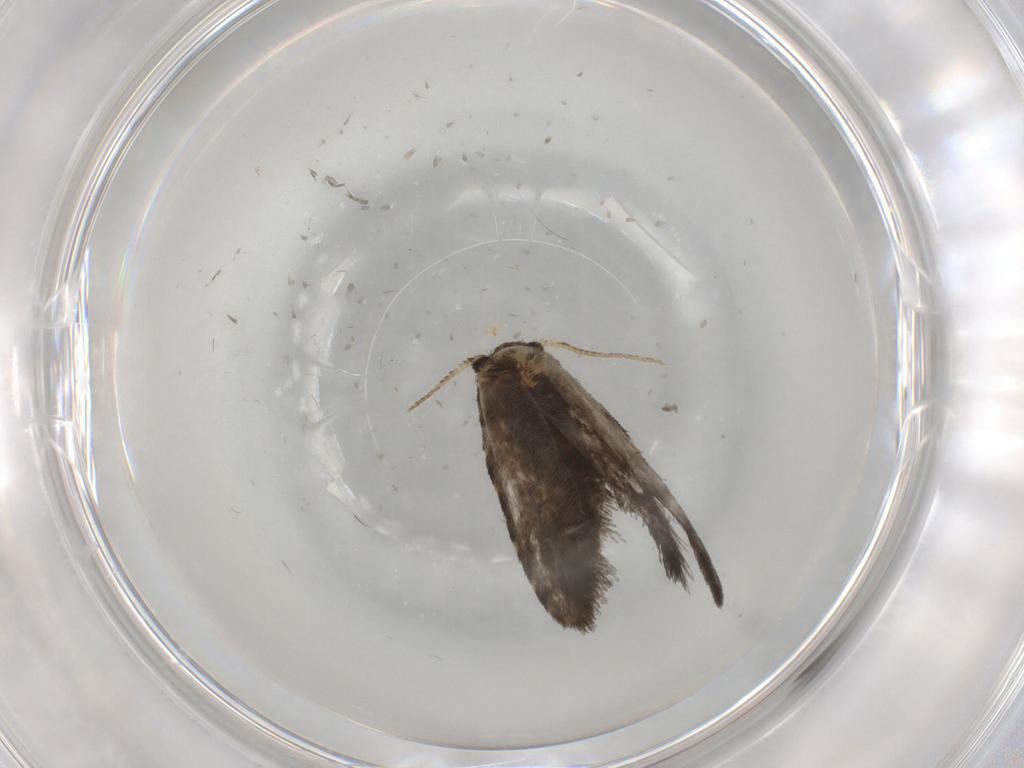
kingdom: Animalia
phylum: Arthropoda
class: Insecta
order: Lepidoptera
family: Psychidae
